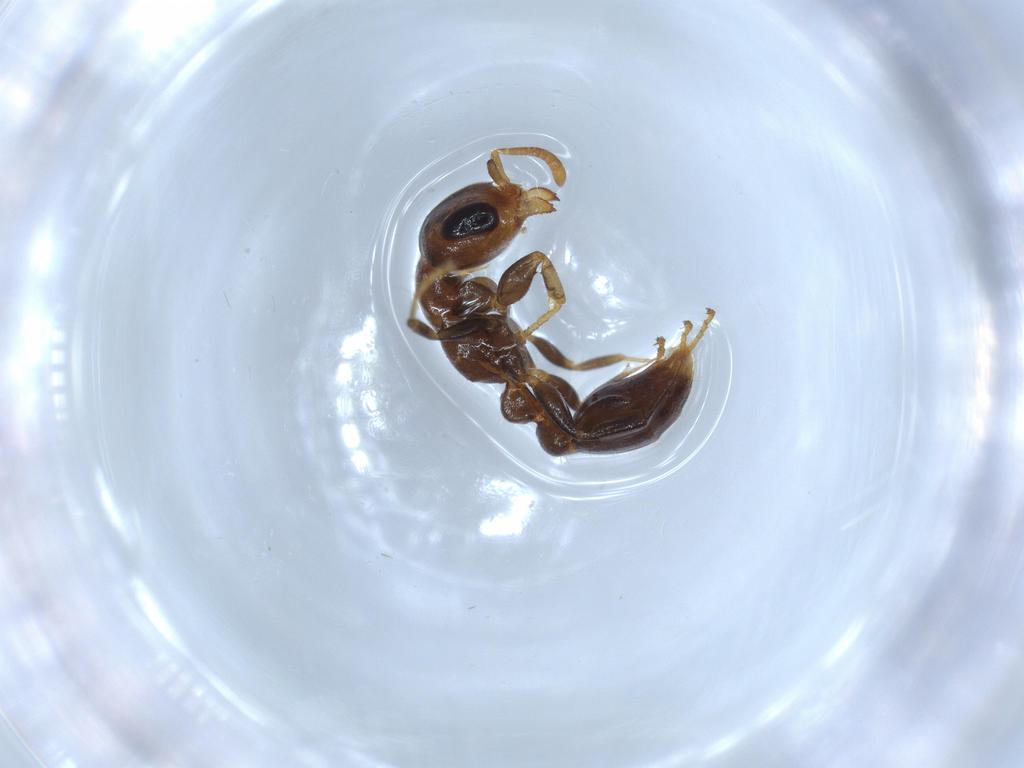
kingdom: Animalia
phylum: Arthropoda
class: Insecta
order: Hymenoptera
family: Formicidae
